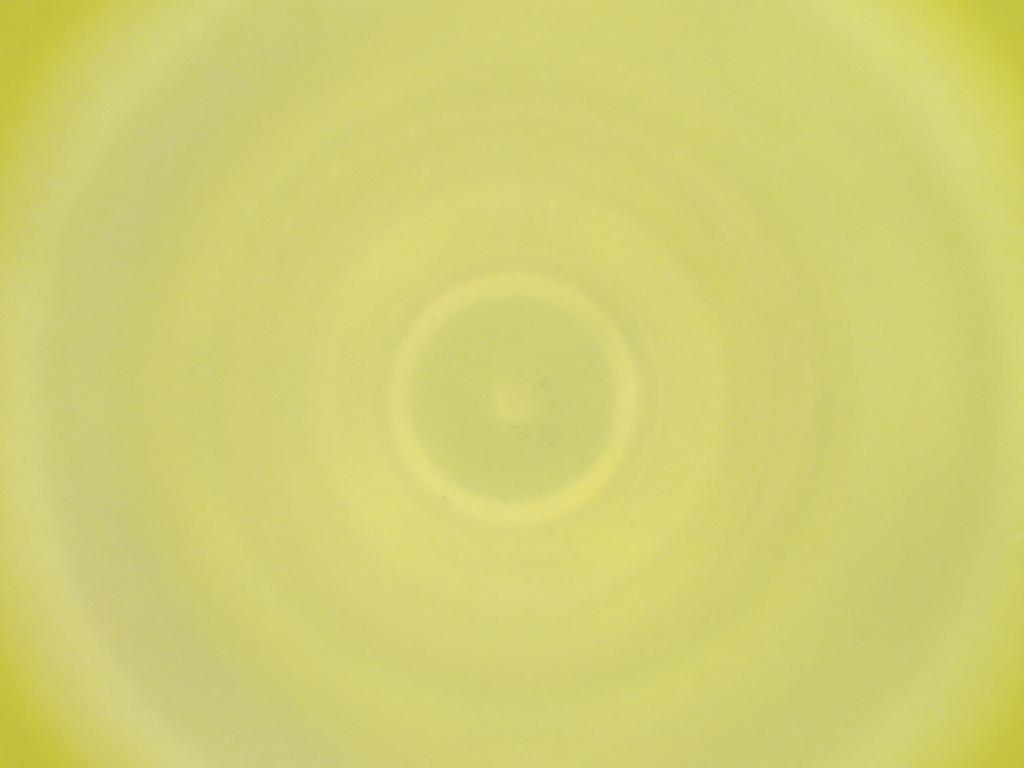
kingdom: Animalia
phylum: Arthropoda
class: Insecta
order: Diptera
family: Cecidomyiidae
